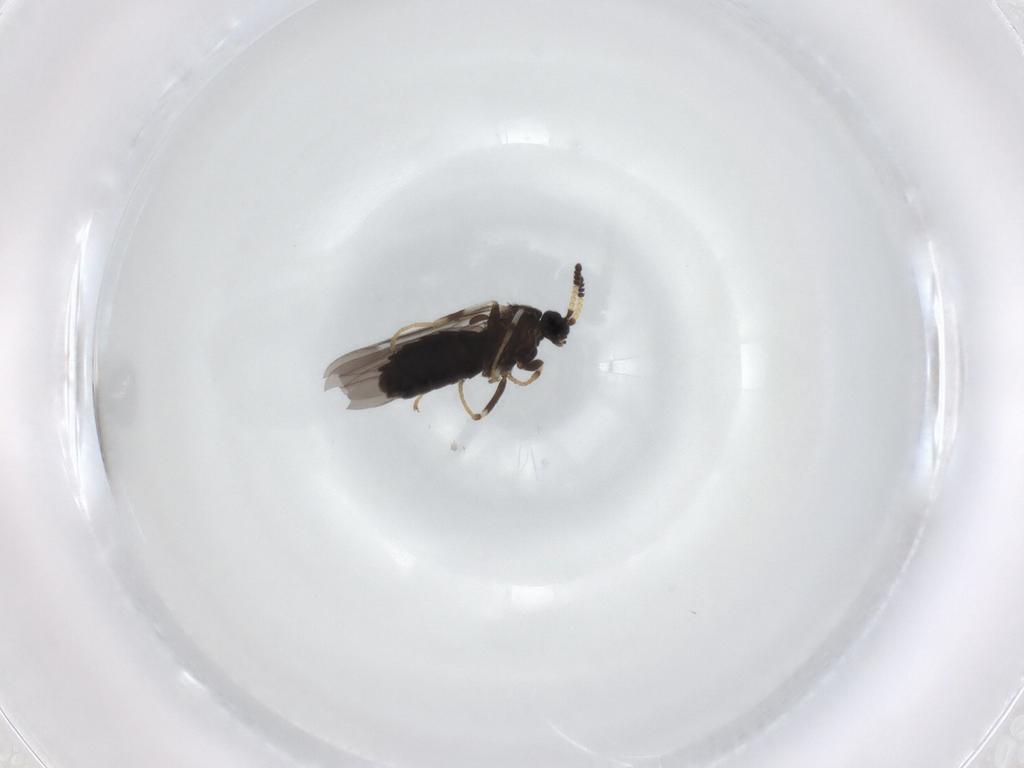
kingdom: Animalia
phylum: Arthropoda
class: Insecta
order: Diptera
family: Scatopsidae
